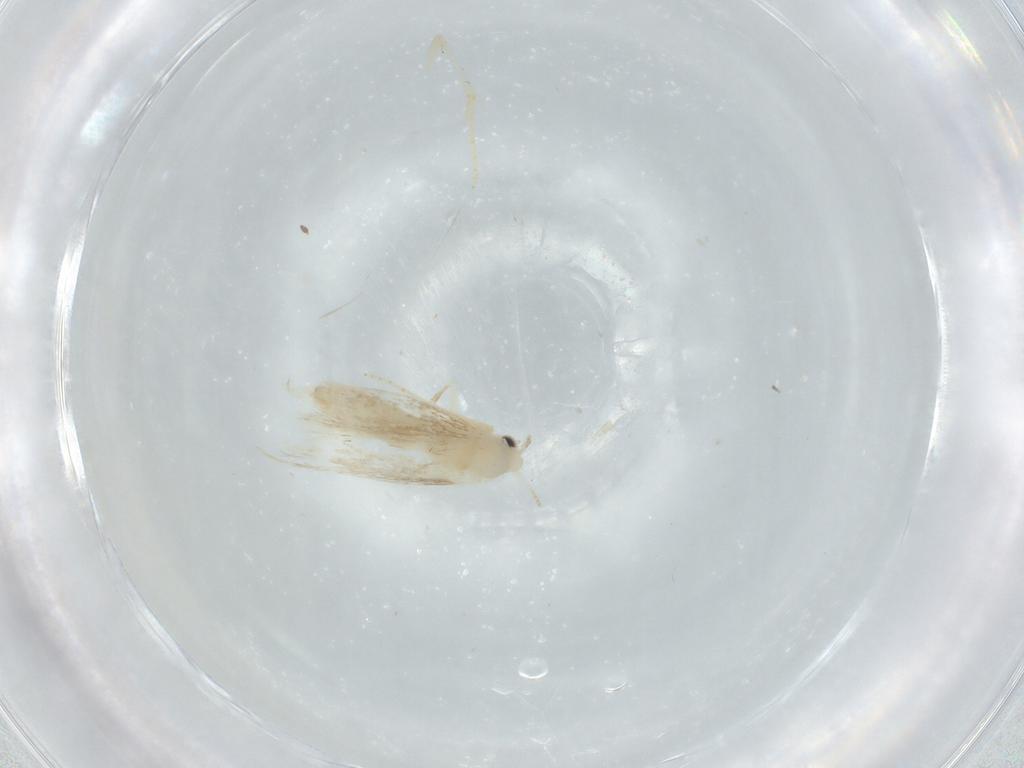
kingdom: Animalia
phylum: Arthropoda
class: Insecta
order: Lepidoptera
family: Bucculatricidae
